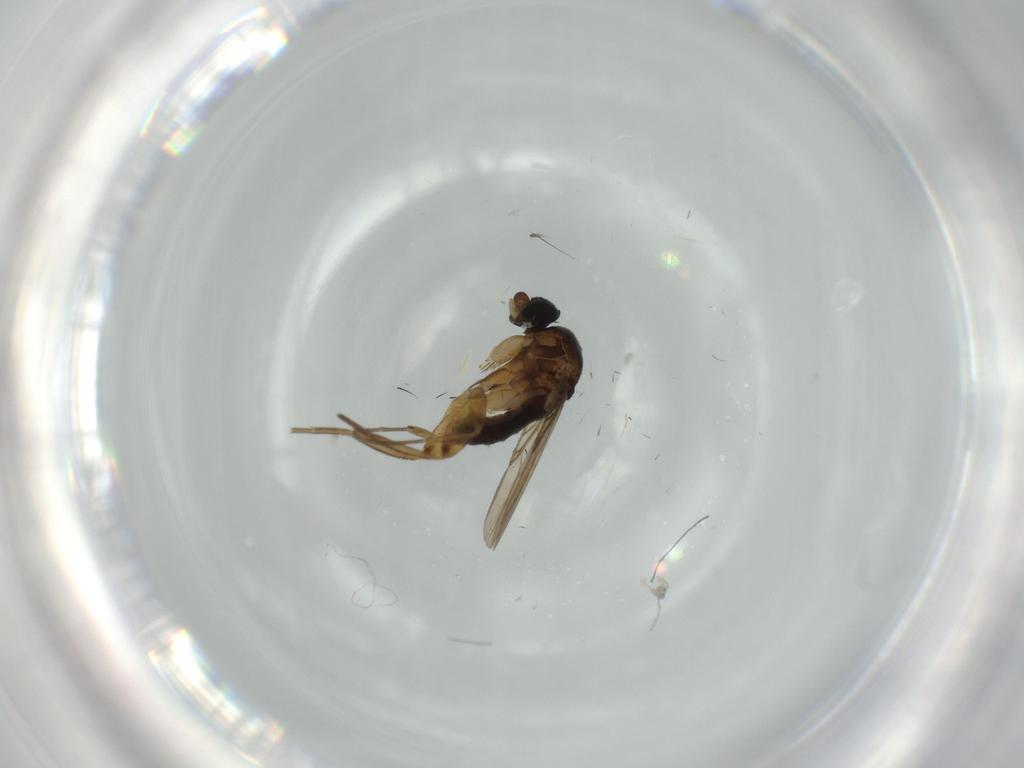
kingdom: Animalia
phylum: Arthropoda
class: Insecta
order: Diptera
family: Phoridae
